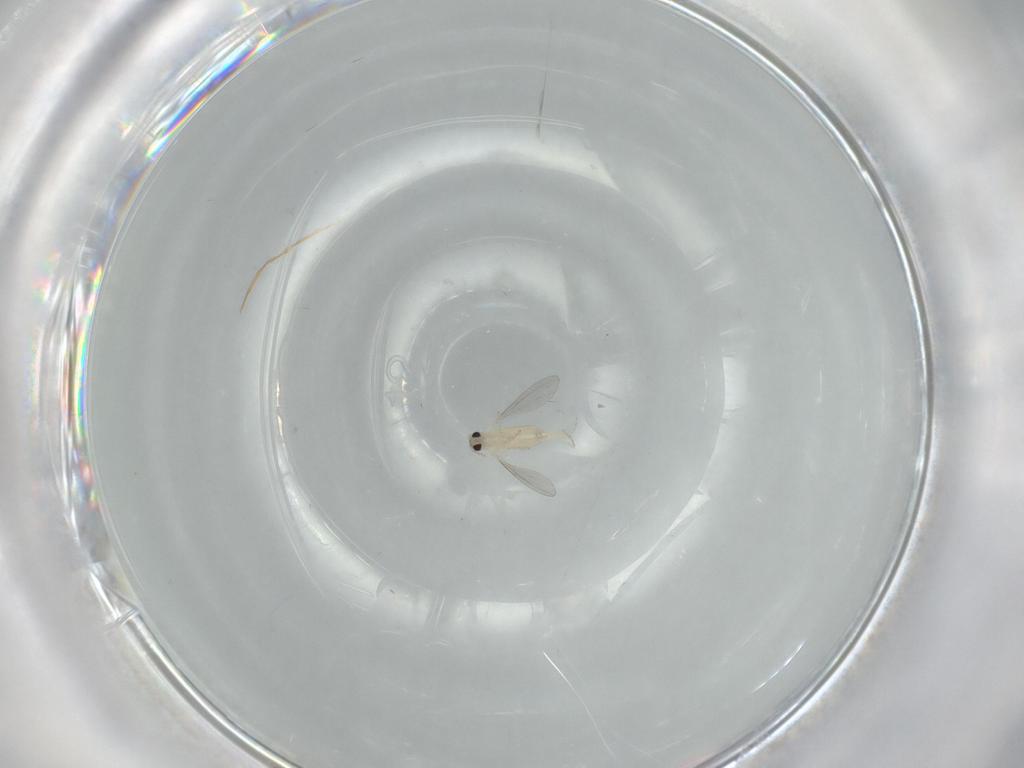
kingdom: Animalia
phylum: Arthropoda
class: Insecta
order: Diptera
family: Cecidomyiidae
